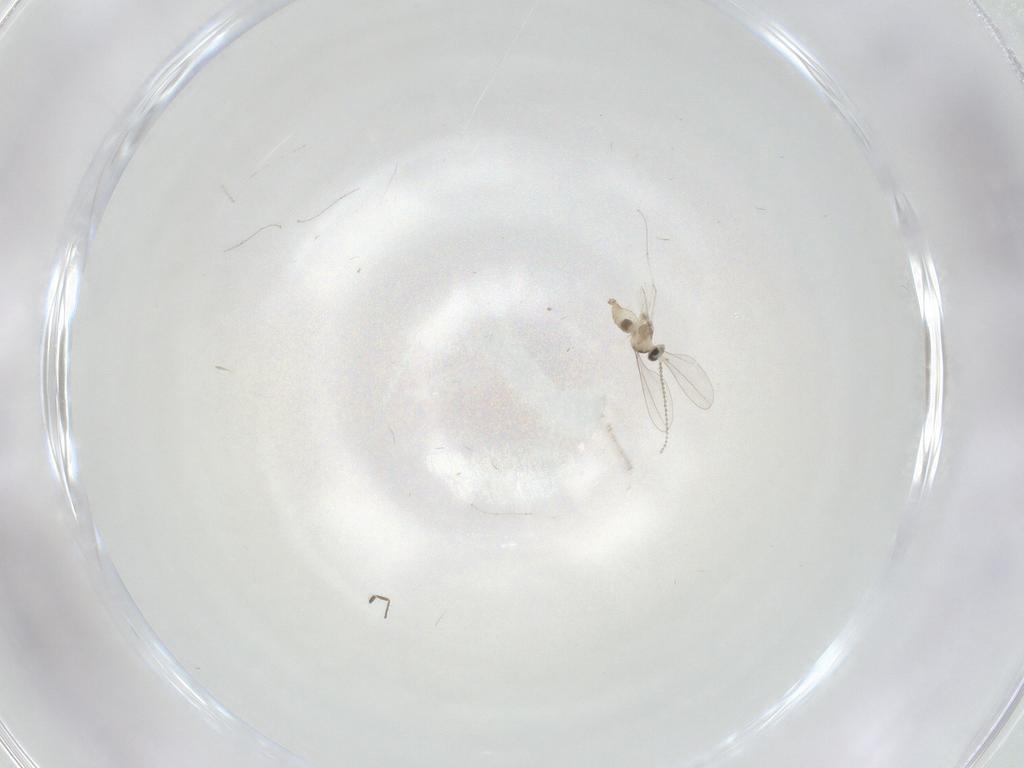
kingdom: Animalia
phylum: Arthropoda
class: Insecta
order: Diptera
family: Cecidomyiidae
